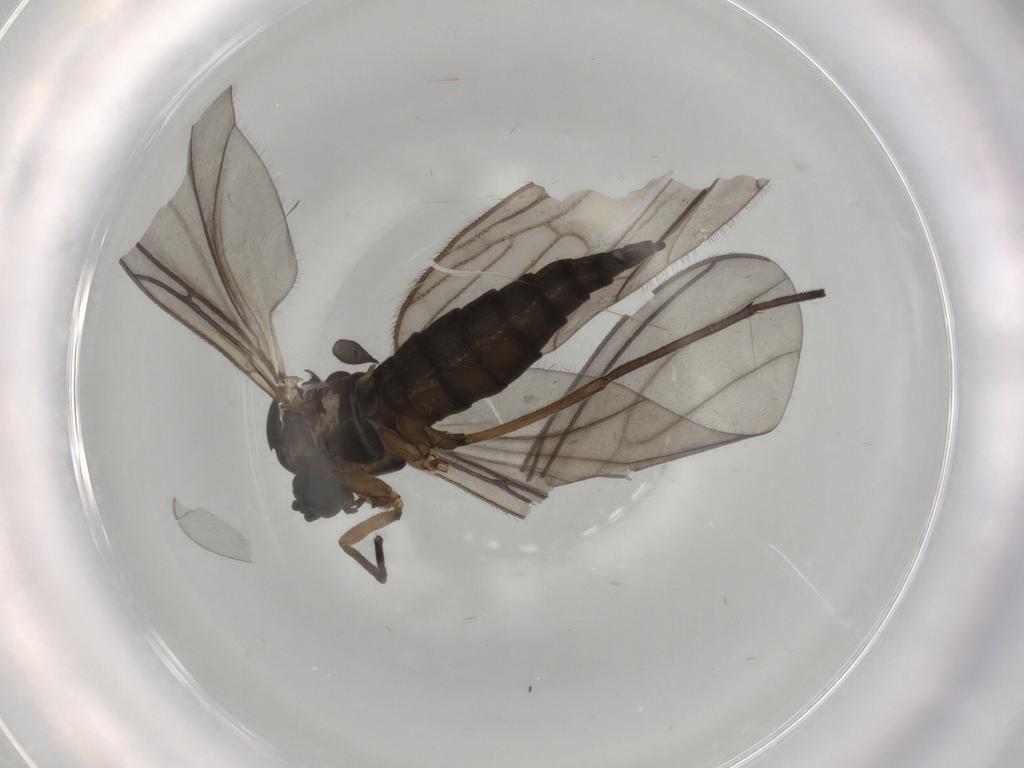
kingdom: Animalia
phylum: Arthropoda
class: Insecta
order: Diptera
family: Sciaridae
